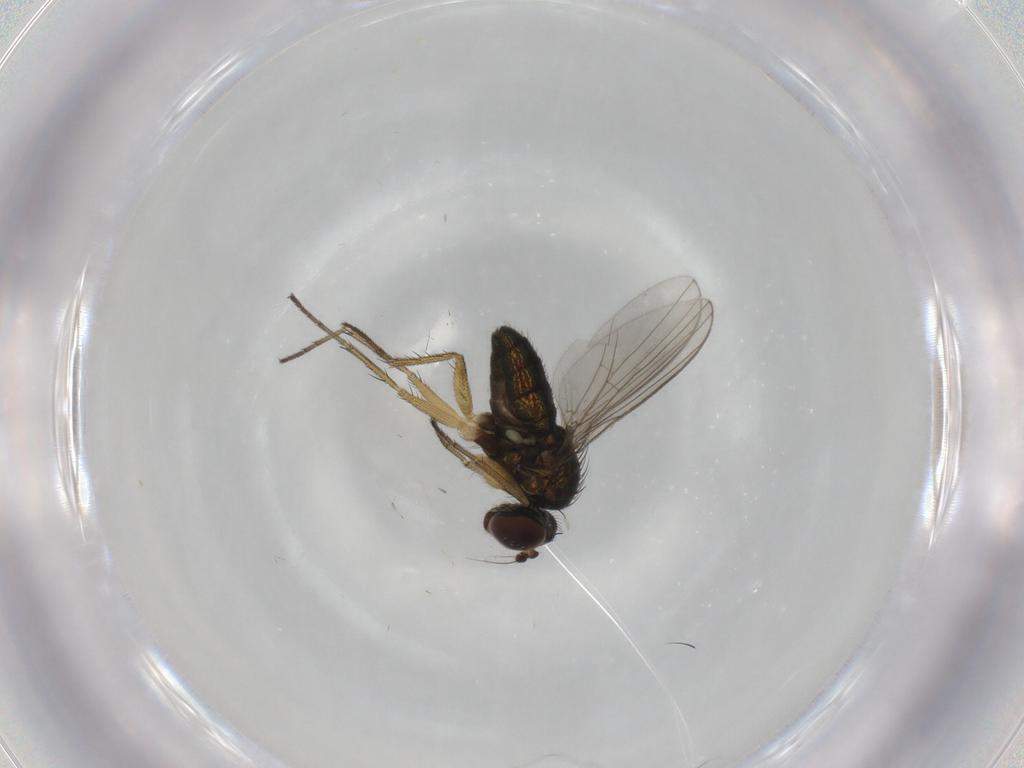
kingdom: Animalia
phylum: Arthropoda
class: Insecta
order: Diptera
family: Dolichopodidae
